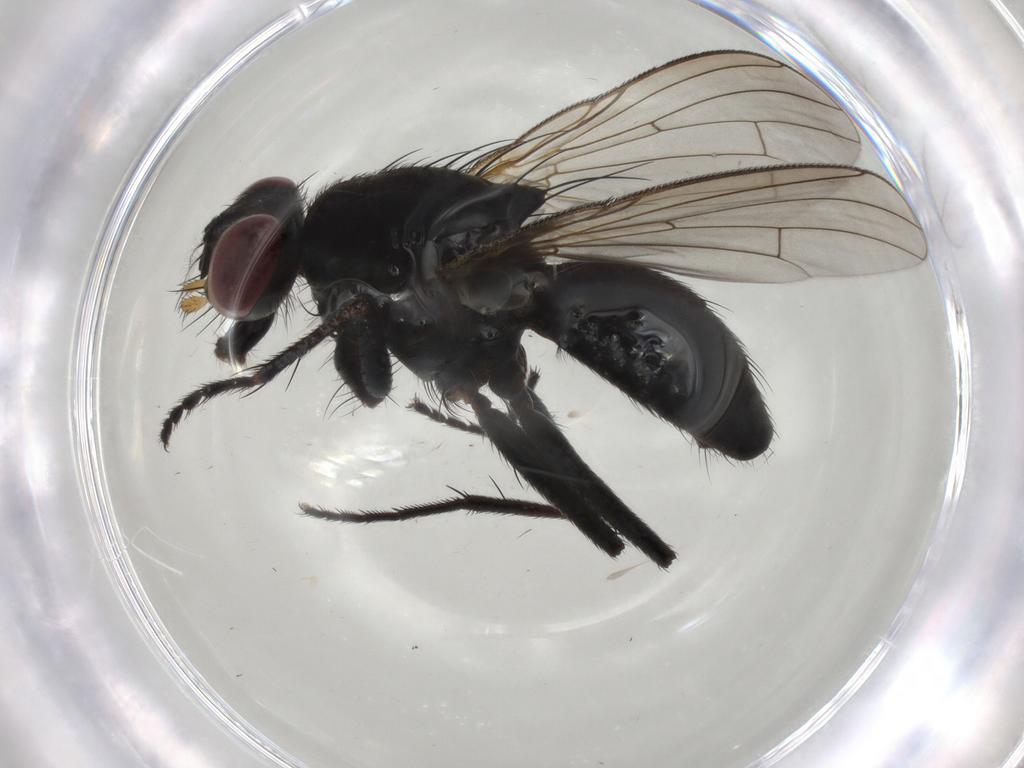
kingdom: Animalia
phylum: Arthropoda
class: Insecta
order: Diptera
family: Muscidae
